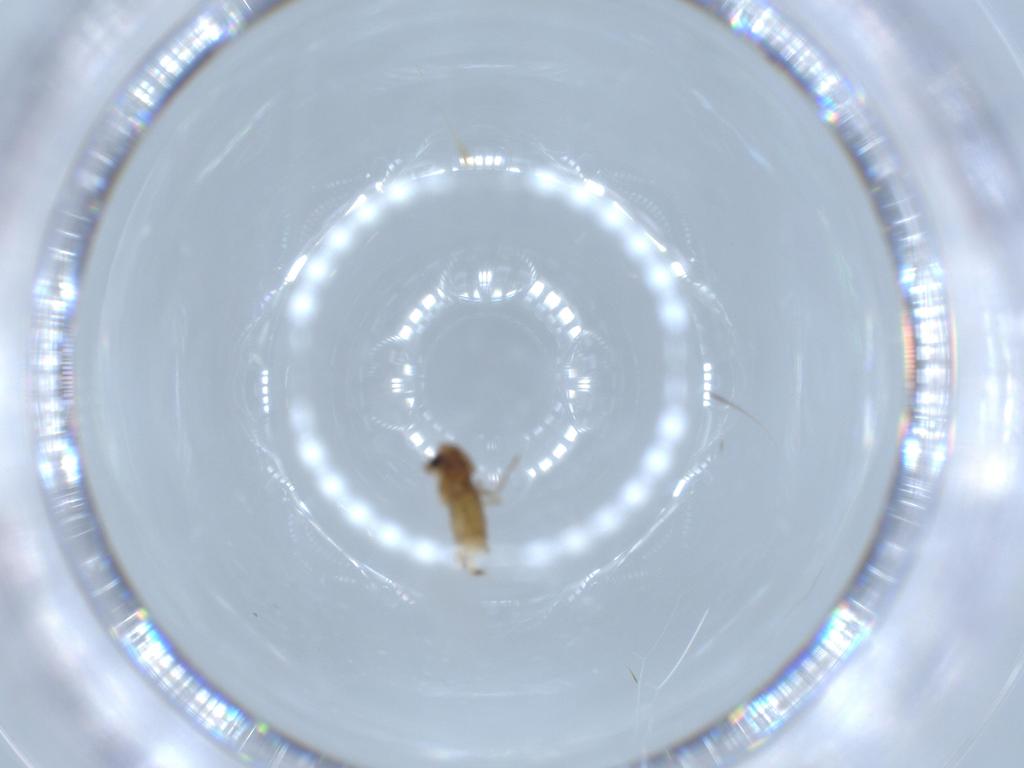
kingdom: Animalia
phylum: Arthropoda
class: Insecta
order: Diptera
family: Chironomidae
